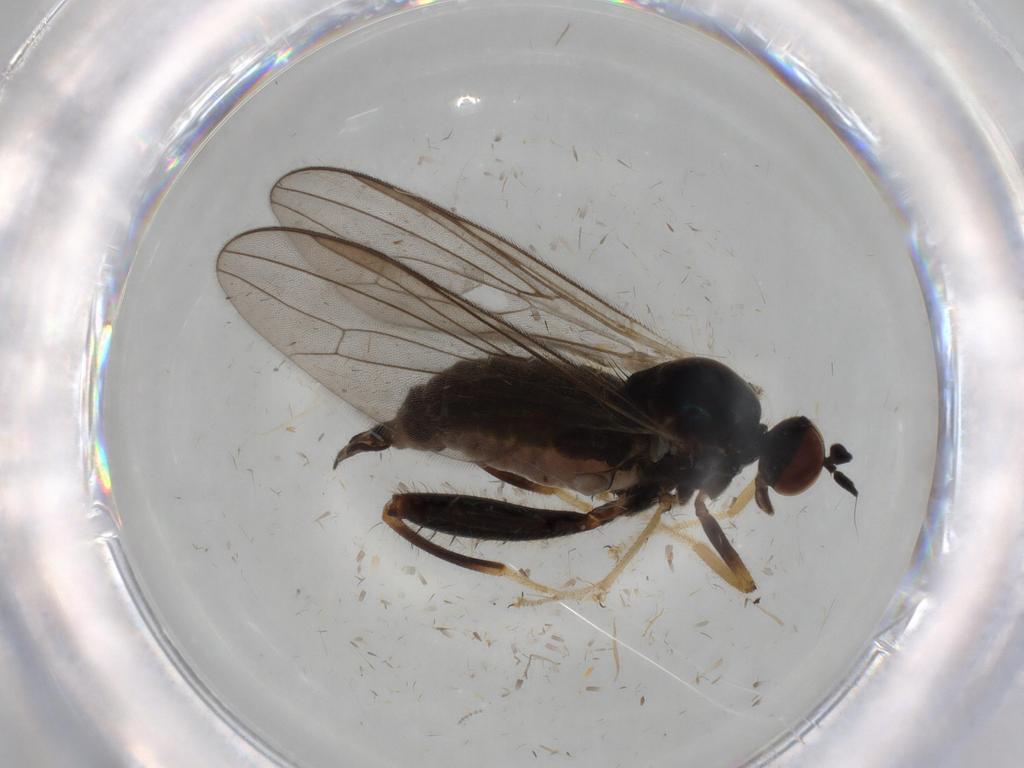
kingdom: Animalia
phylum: Arthropoda
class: Insecta
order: Diptera
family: Hybotidae
